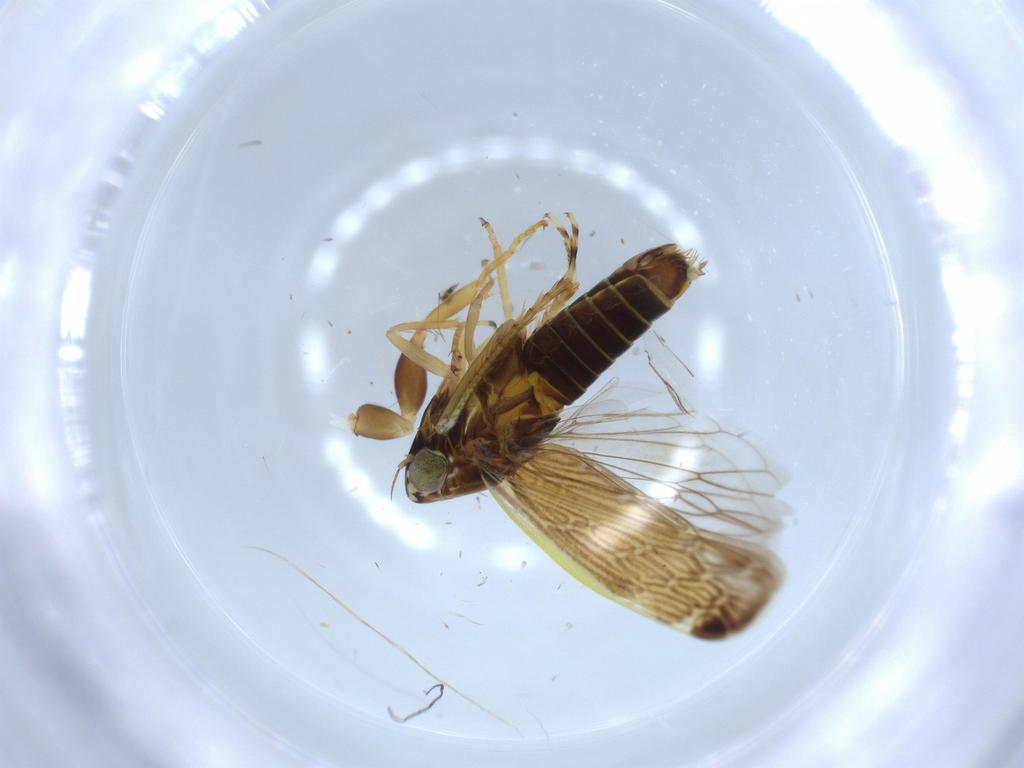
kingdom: Animalia
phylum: Arthropoda
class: Insecta
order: Hemiptera
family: Cicadellidae
